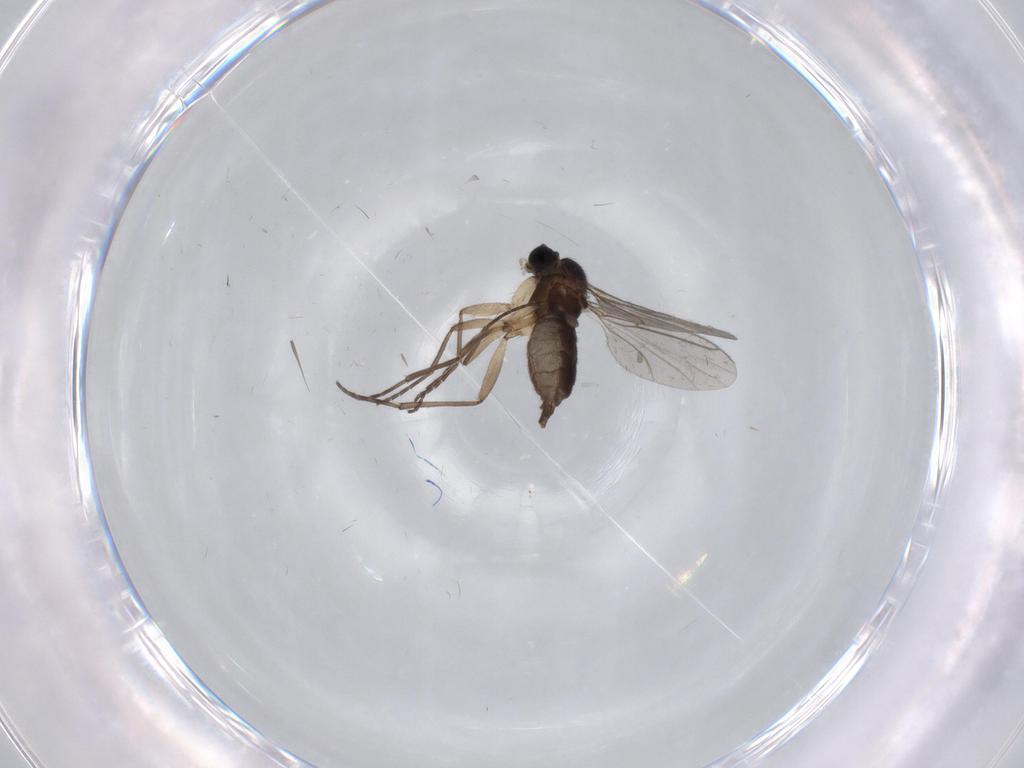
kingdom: Animalia
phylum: Arthropoda
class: Insecta
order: Diptera
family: Sciaridae
